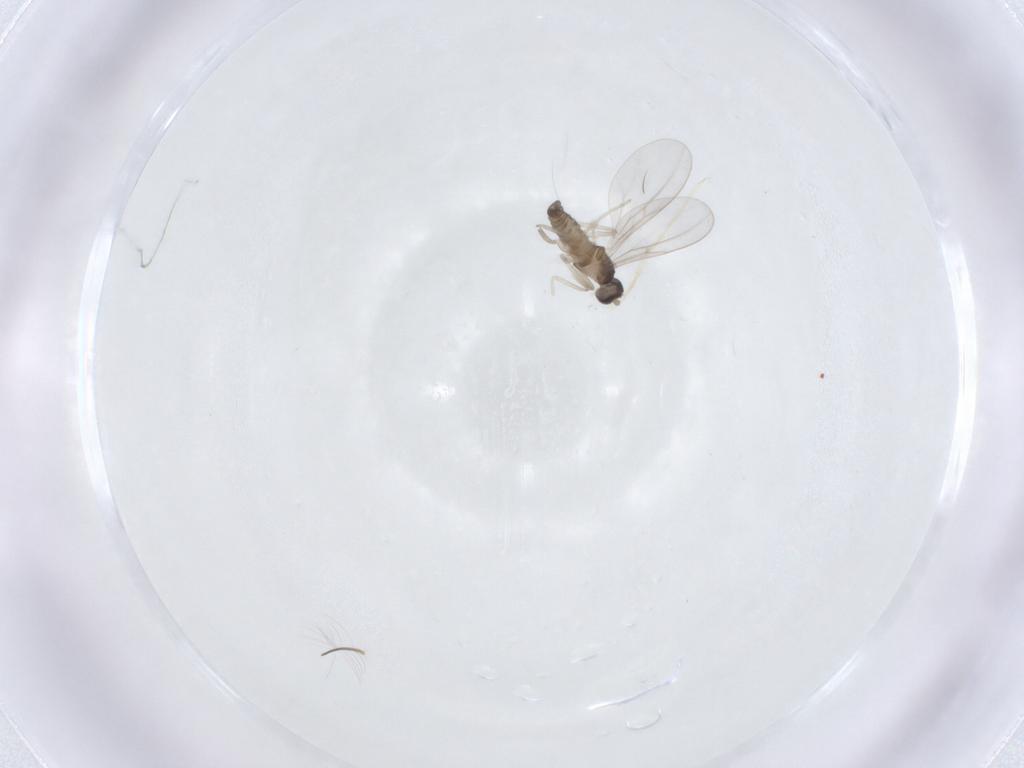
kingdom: Animalia
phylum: Arthropoda
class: Insecta
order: Diptera
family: Chironomidae
